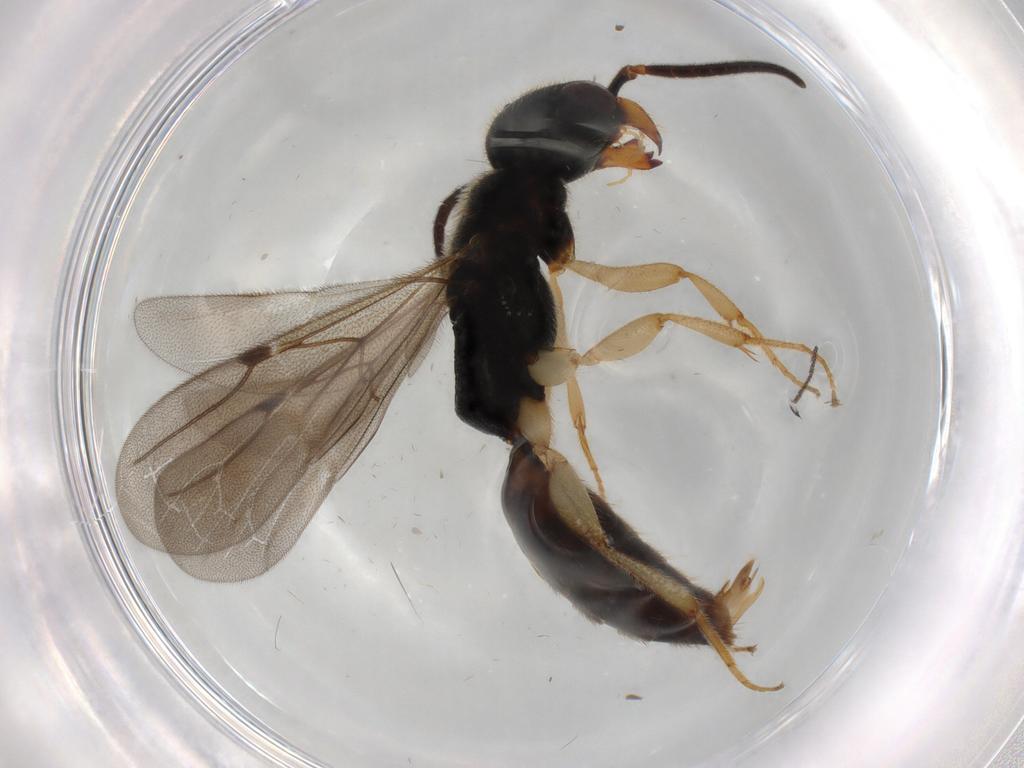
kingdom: Animalia
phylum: Arthropoda
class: Insecta
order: Hymenoptera
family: Bethylidae
